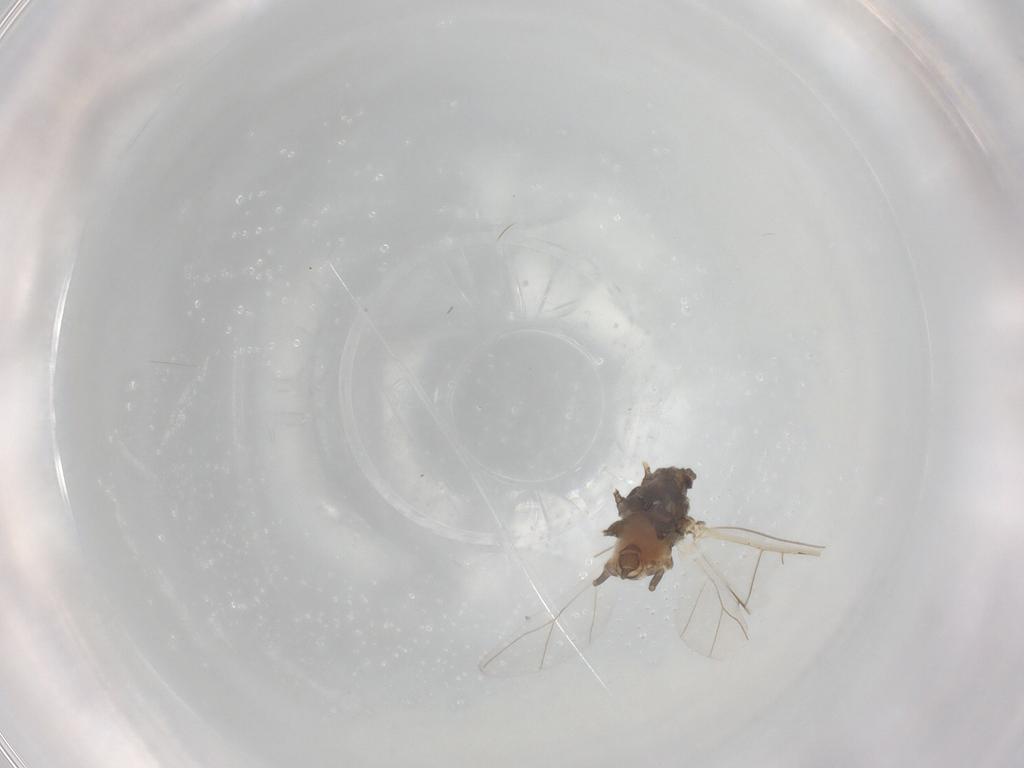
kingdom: Animalia
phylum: Arthropoda
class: Insecta
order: Hemiptera
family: Aphididae
